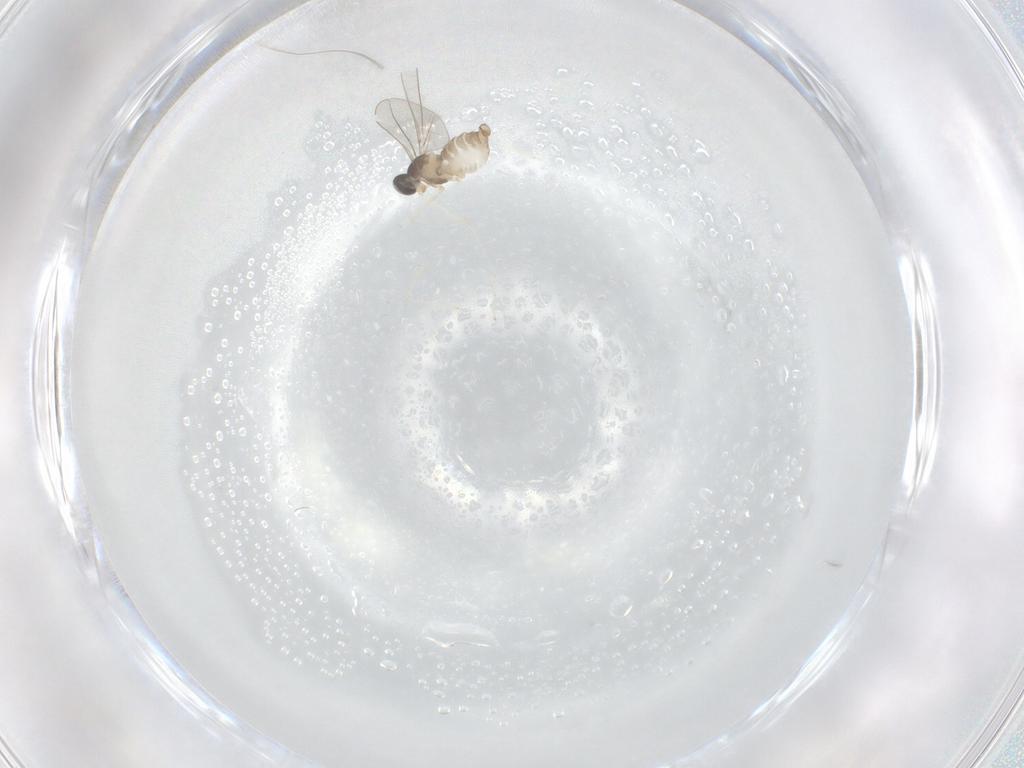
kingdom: Animalia
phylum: Arthropoda
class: Insecta
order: Diptera
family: Cecidomyiidae
